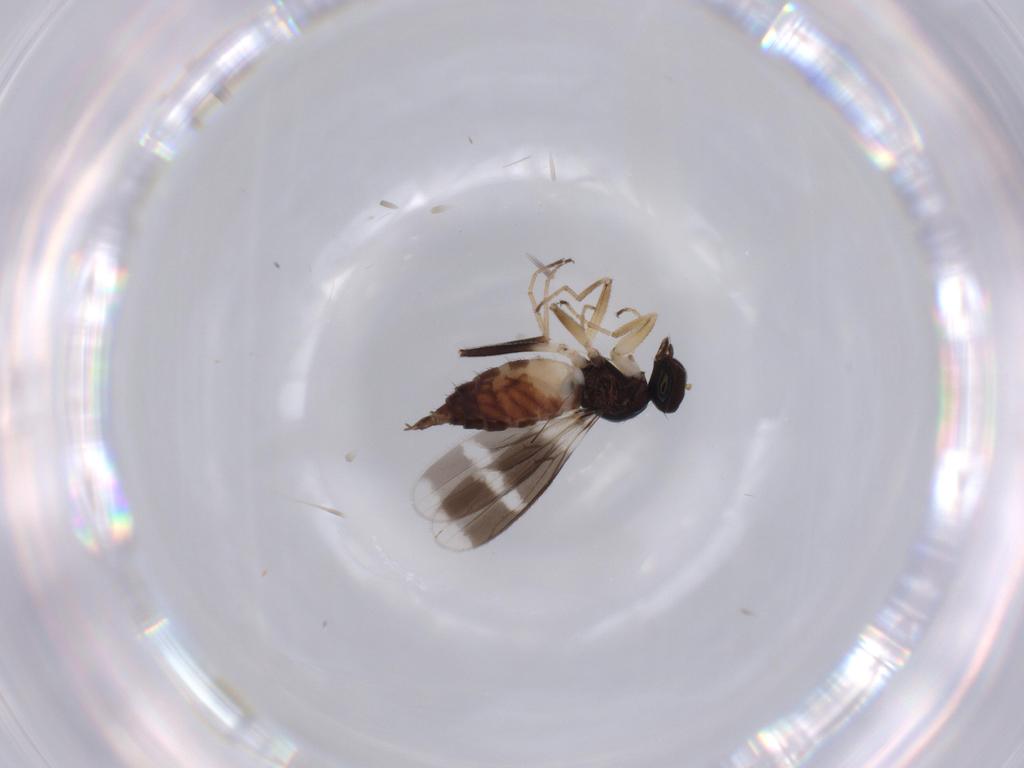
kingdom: Animalia
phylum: Arthropoda
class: Insecta
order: Diptera
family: Hybotidae
